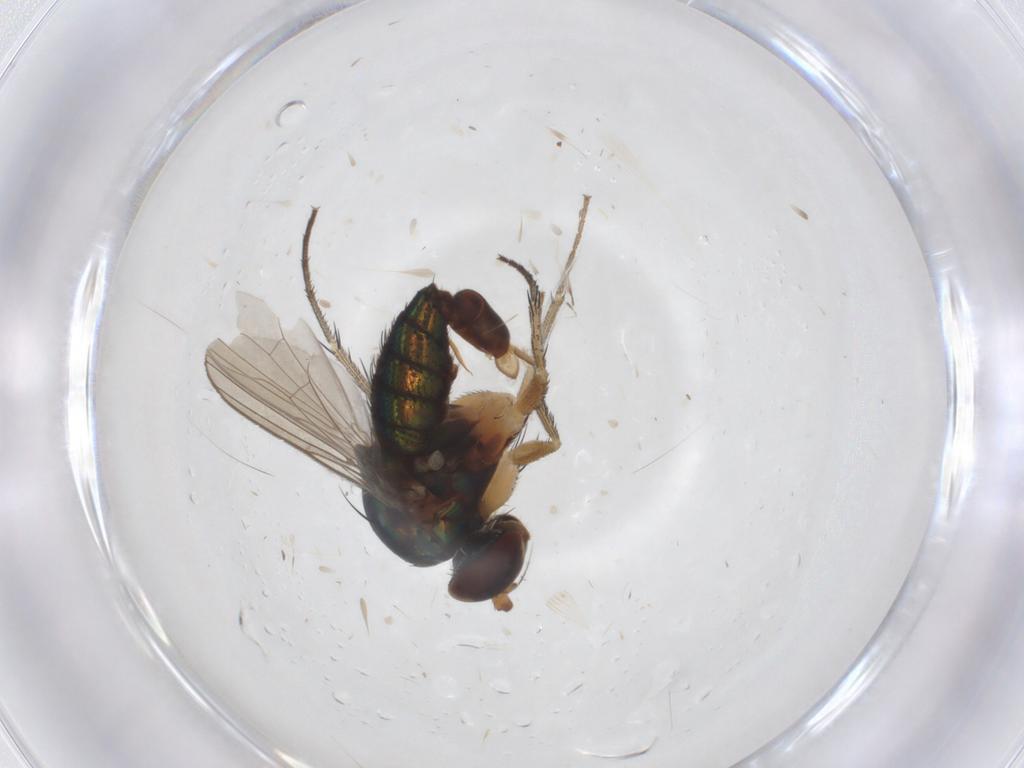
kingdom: Animalia
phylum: Arthropoda
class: Insecta
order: Diptera
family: Dolichopodidae
